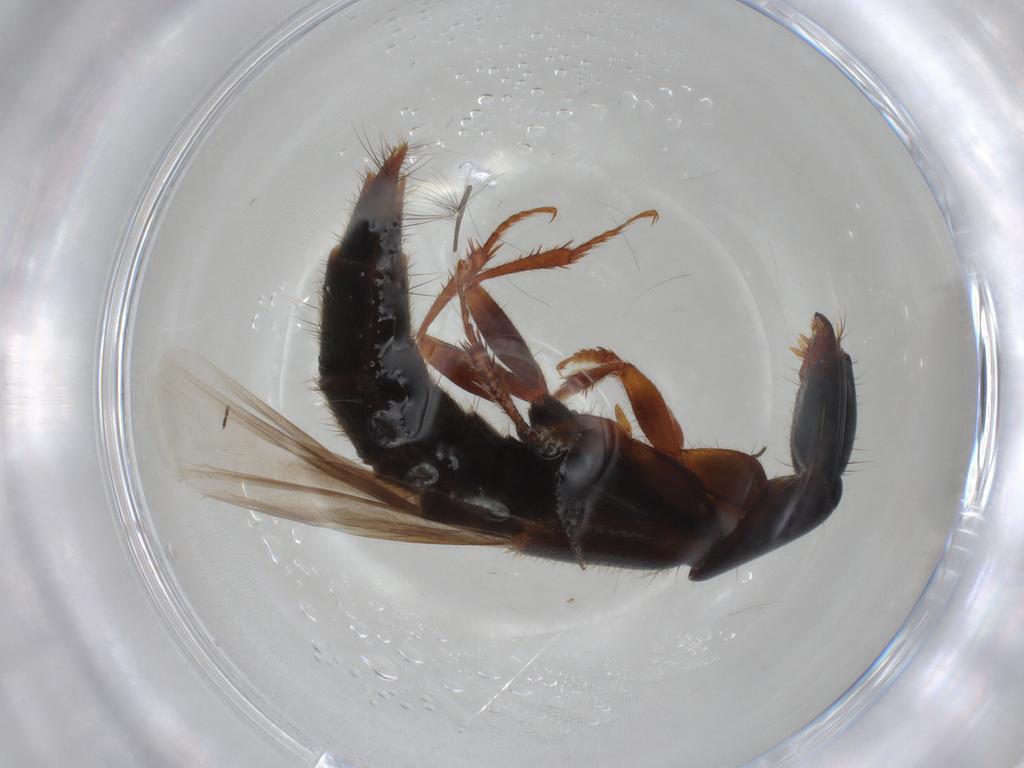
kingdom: Animalia
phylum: Arthropoda
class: Insecta
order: Coleoptera
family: Staphylinidae
